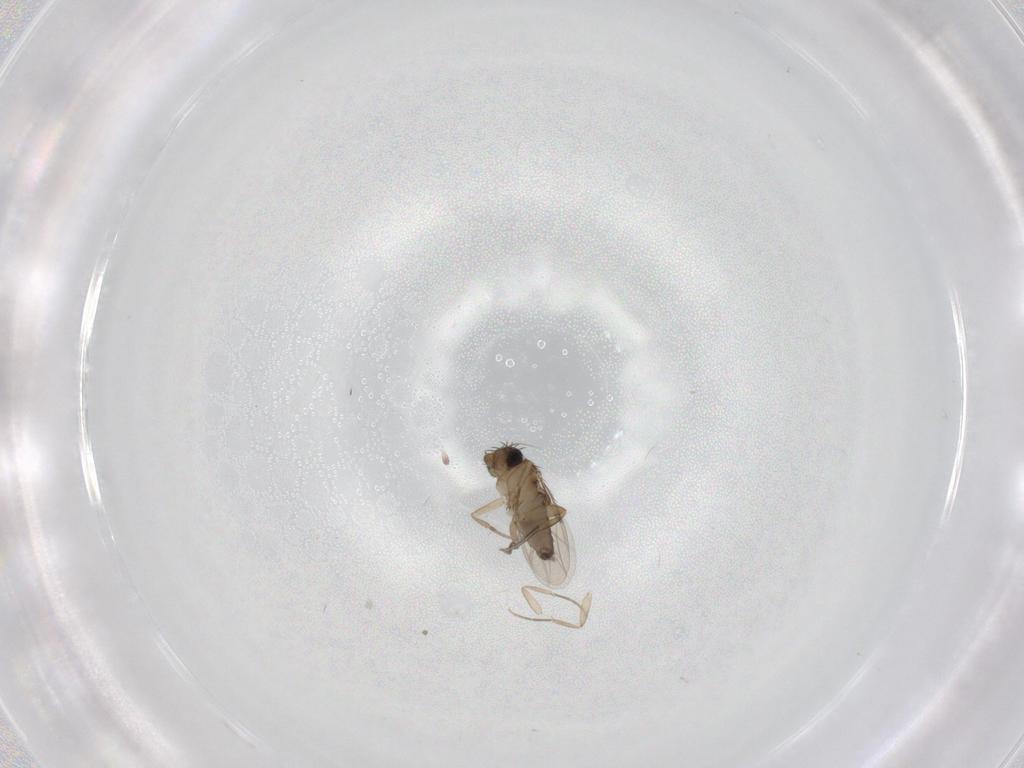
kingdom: Animalia
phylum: Arthropoda
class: Insecta
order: Diptera
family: Phoridae
